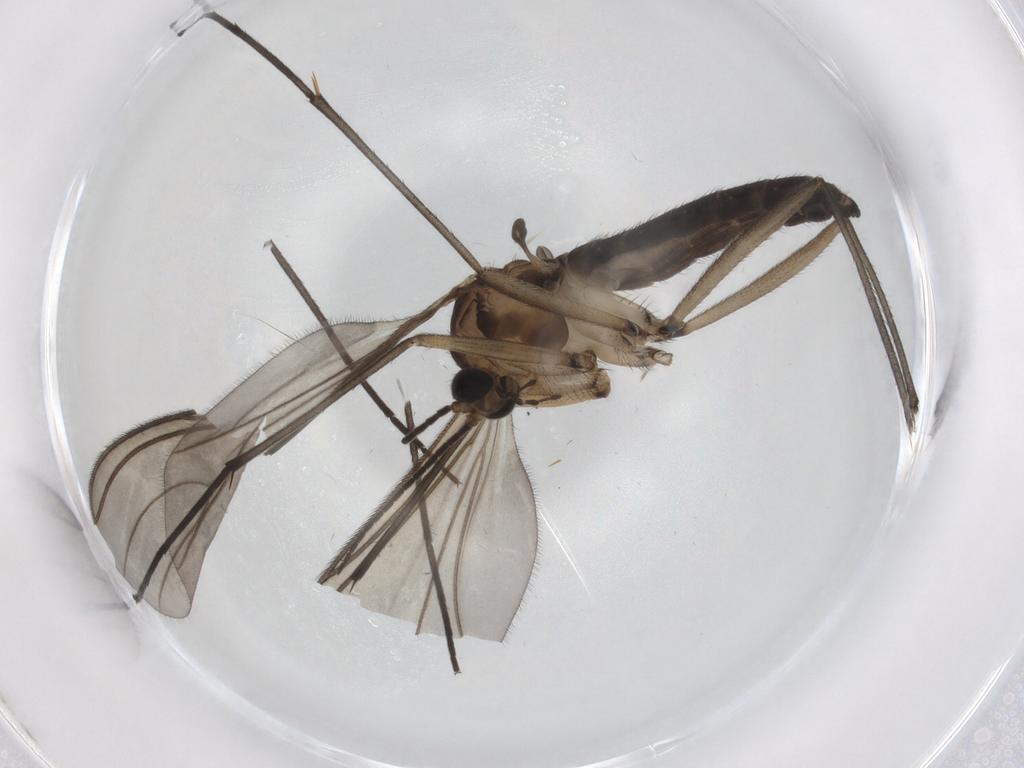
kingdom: Animalia
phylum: Arthropoda
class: Insecta
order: Diptera
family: Sciaridae
